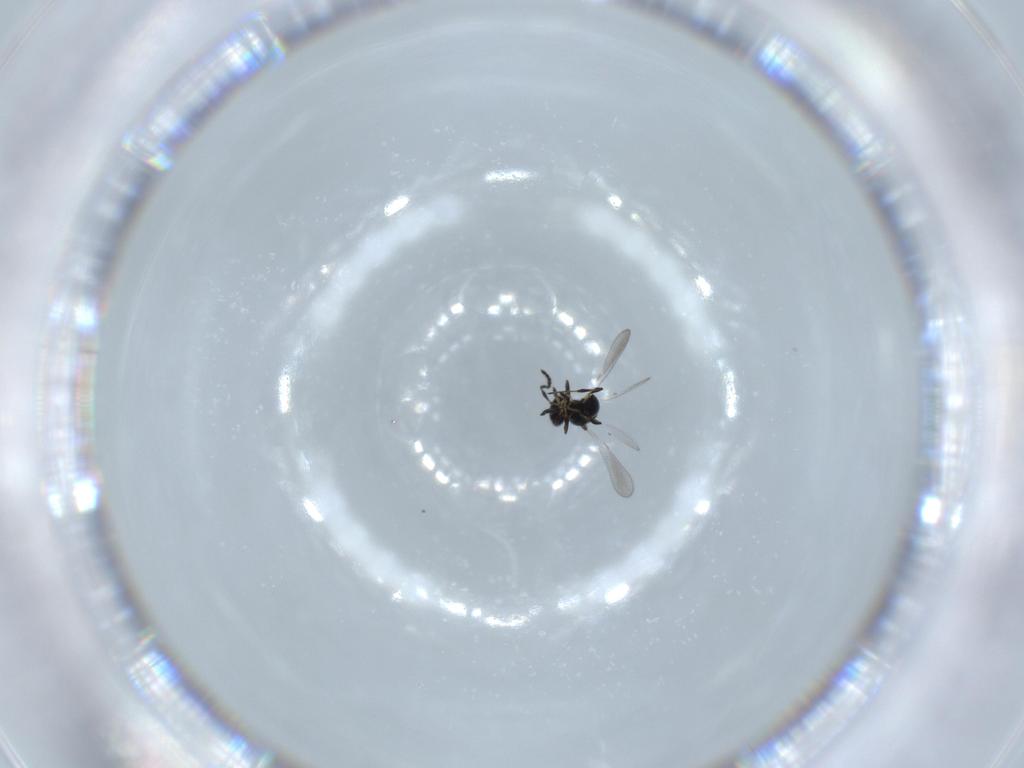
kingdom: Animalia
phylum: Arthropoda
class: Insecta
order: Hymenoptera
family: Platygastridae
